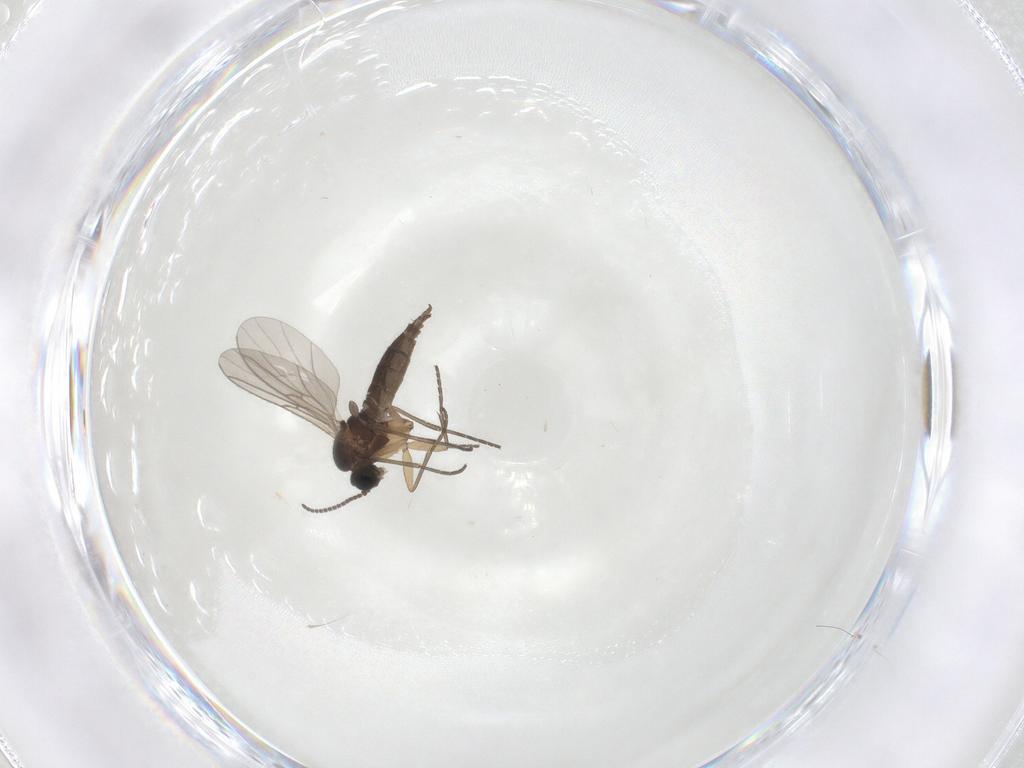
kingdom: Animalia
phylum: Arthropoda
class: Insecta
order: Diptera
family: Sciaridae
